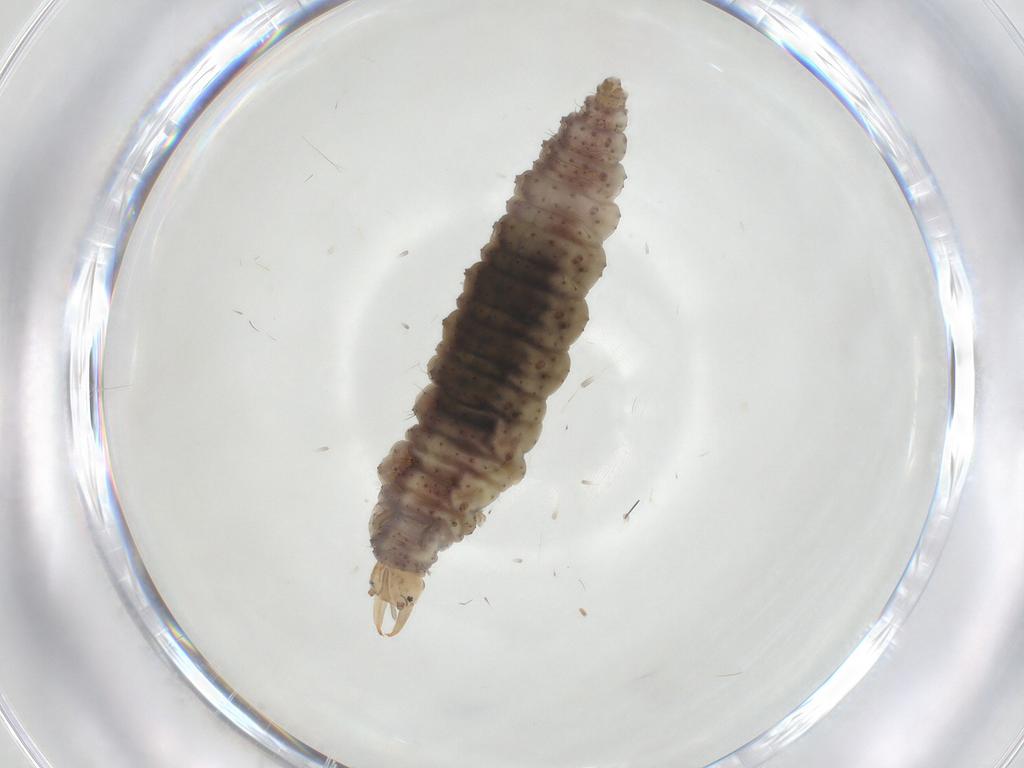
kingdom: Animalia
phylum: Arthropoda
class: Insecta
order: Neuroptera
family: Hemerobiidae
